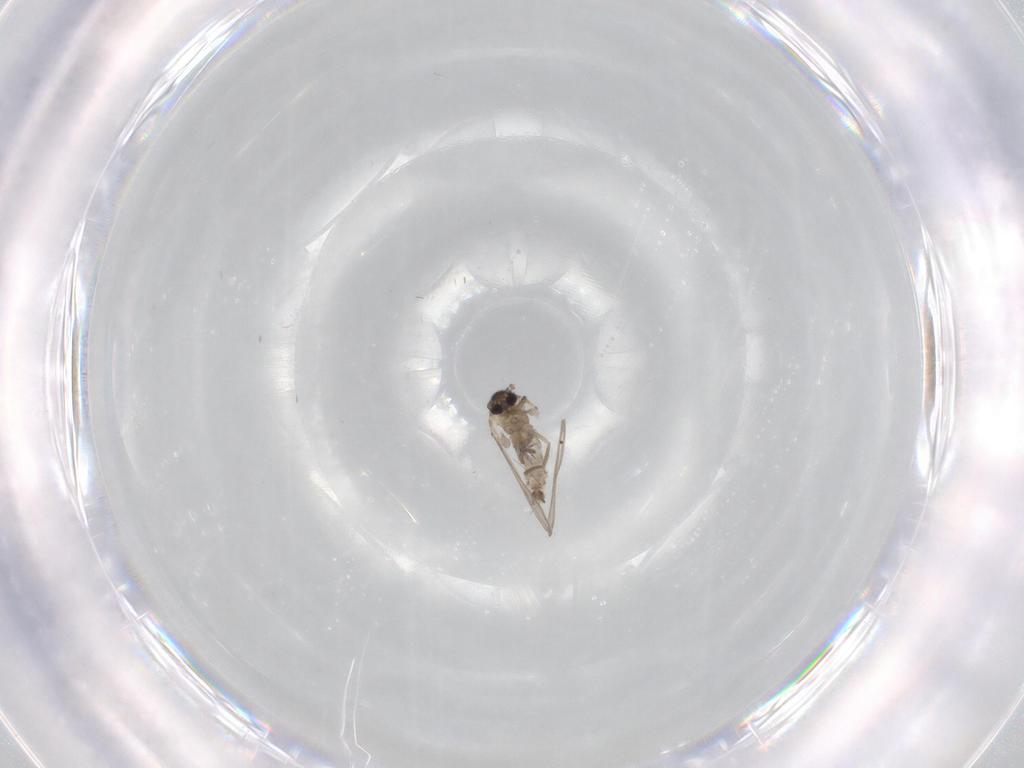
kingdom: Animalia
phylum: Arthropoda
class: Insecta
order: Diptera
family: Psychodidae
